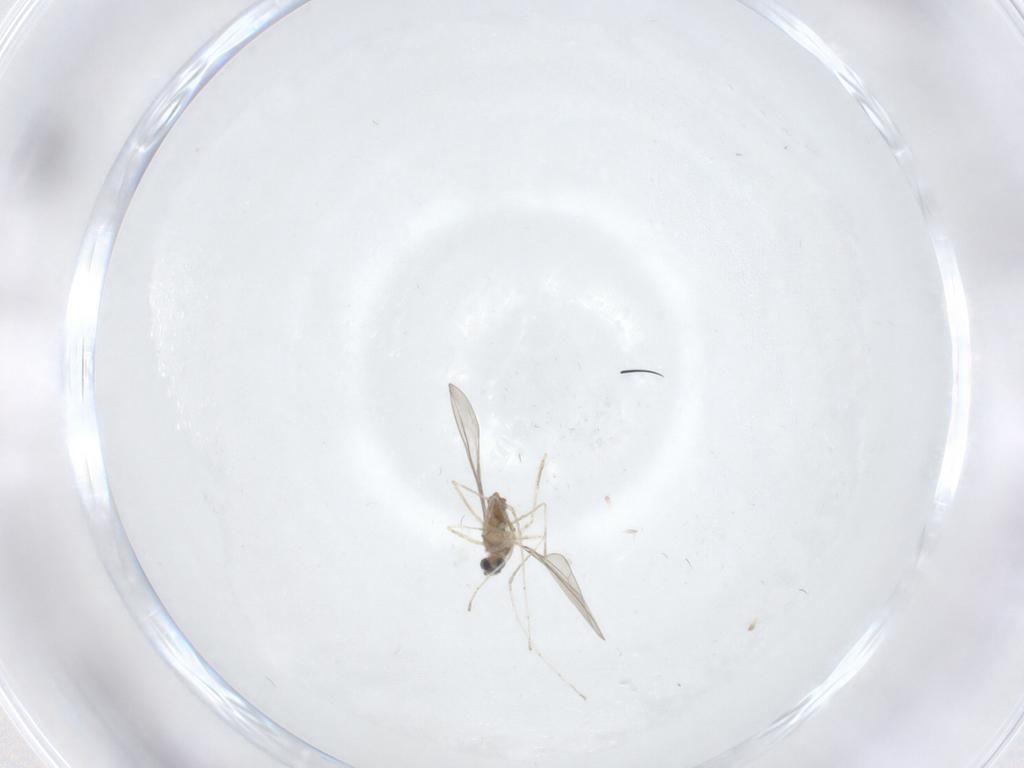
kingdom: Animalia
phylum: Arthropoda
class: Insecta
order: Diptera
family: Cecidomyiidae
